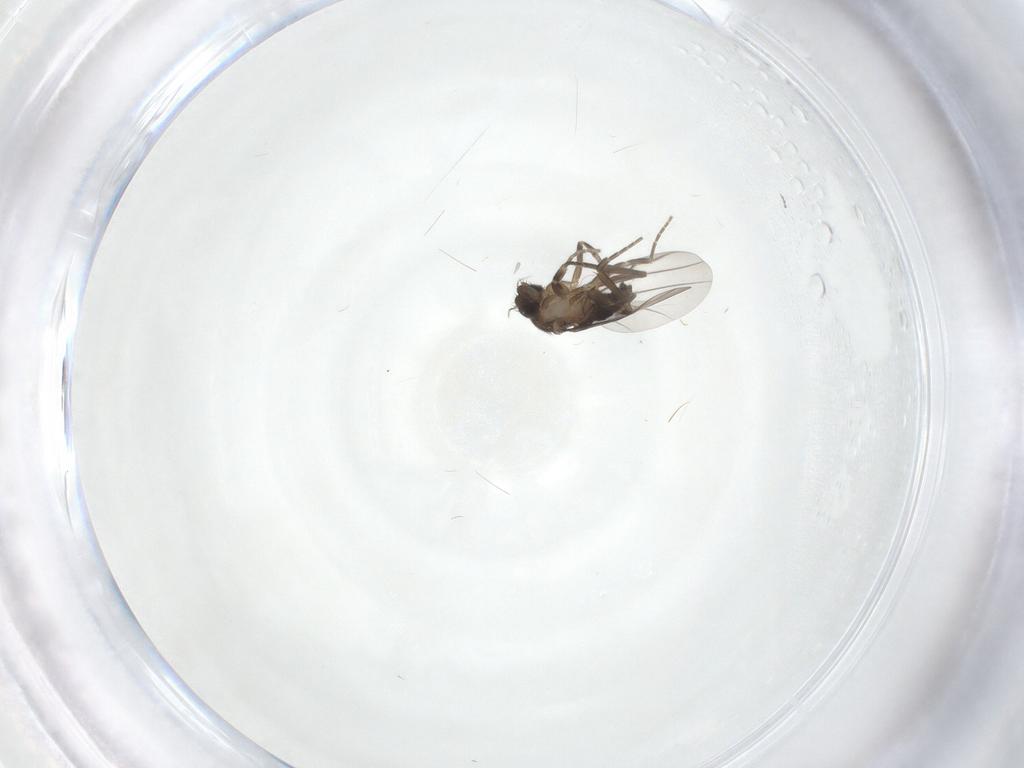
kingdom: Animalia
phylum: Arthropoda
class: Insecta
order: Diptera
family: Phoridae
